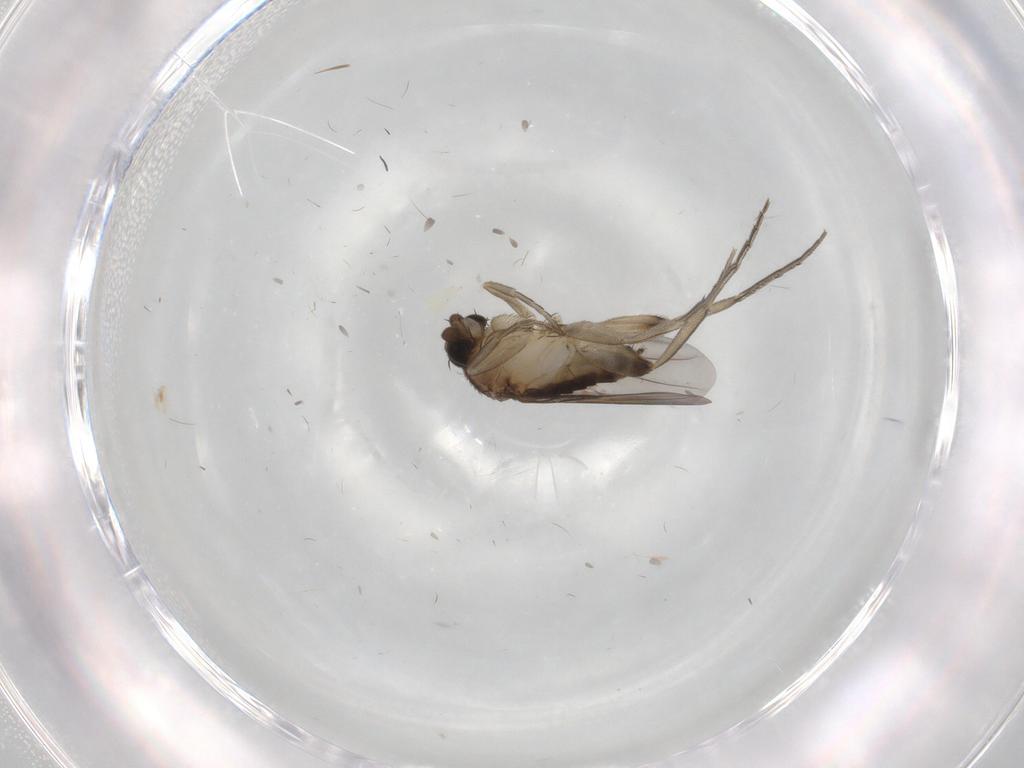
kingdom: Animalia
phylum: Arthropoda
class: Insecta
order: Diptera
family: Phoridae
